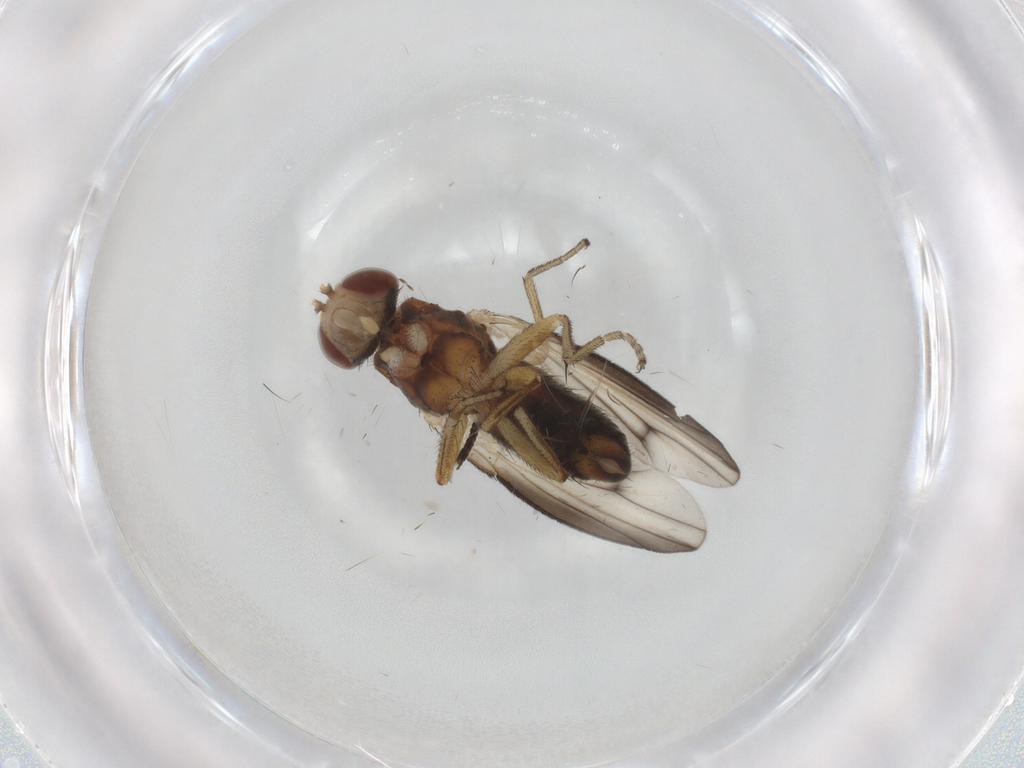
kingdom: Animalia
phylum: Arthropoda
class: Insecta
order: Diptera
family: Heleomyzidae
